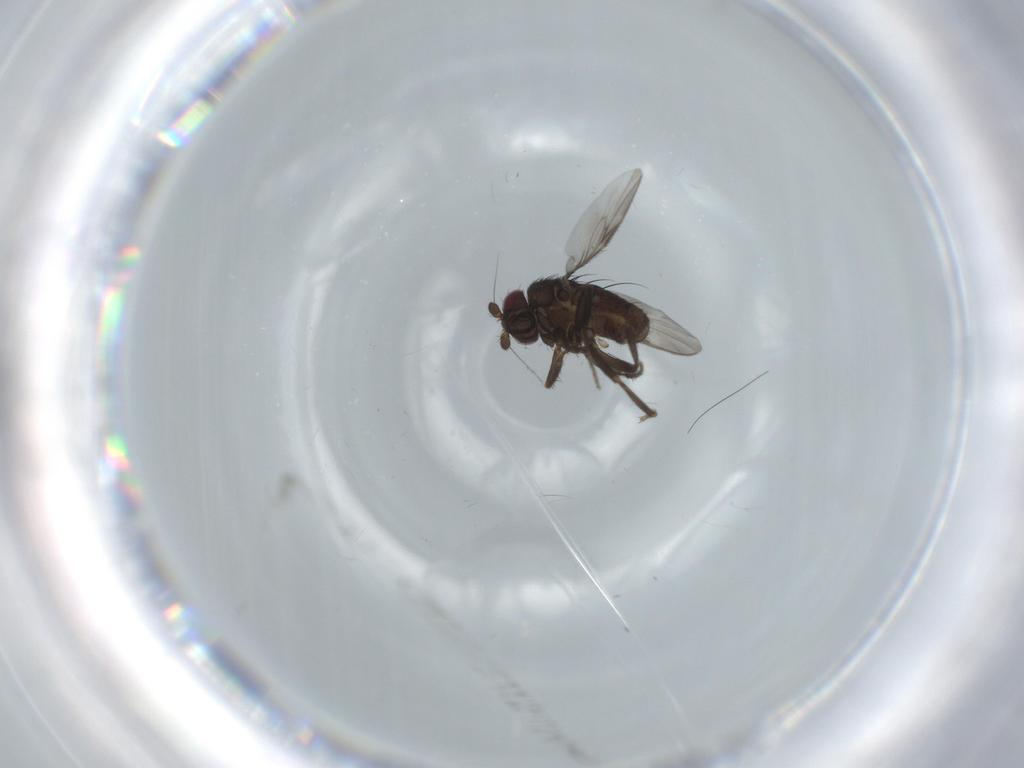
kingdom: Animalia
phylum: Arthropoda
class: Insecta
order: Diptera
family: Sphaeroceridae
